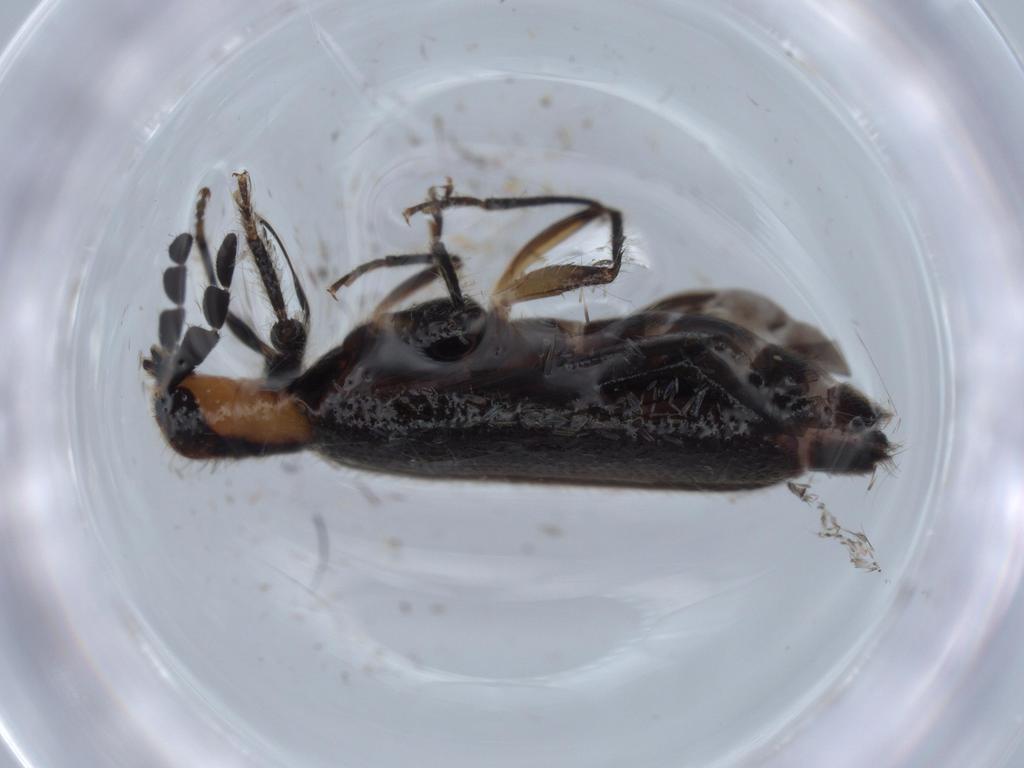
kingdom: Animalia
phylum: Arthropoda
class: Insecta
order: Coleoptera
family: Cleridae
